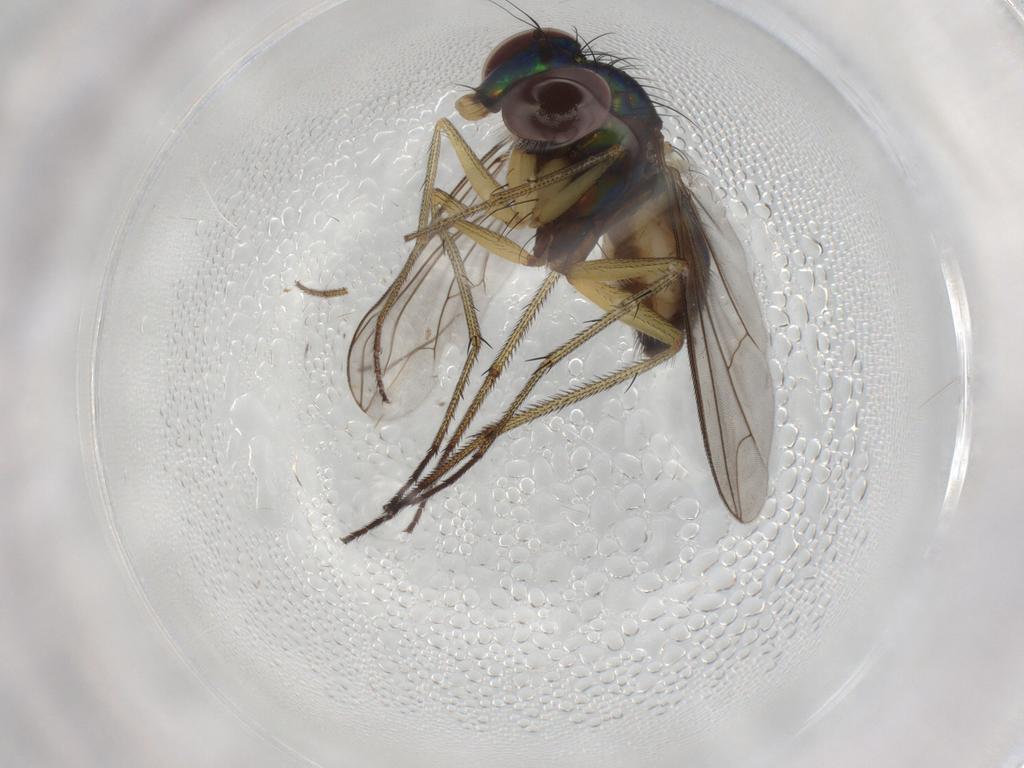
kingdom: Animalia
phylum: Arthropoda
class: Insecta
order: Diptera
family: Dolichopodidae
